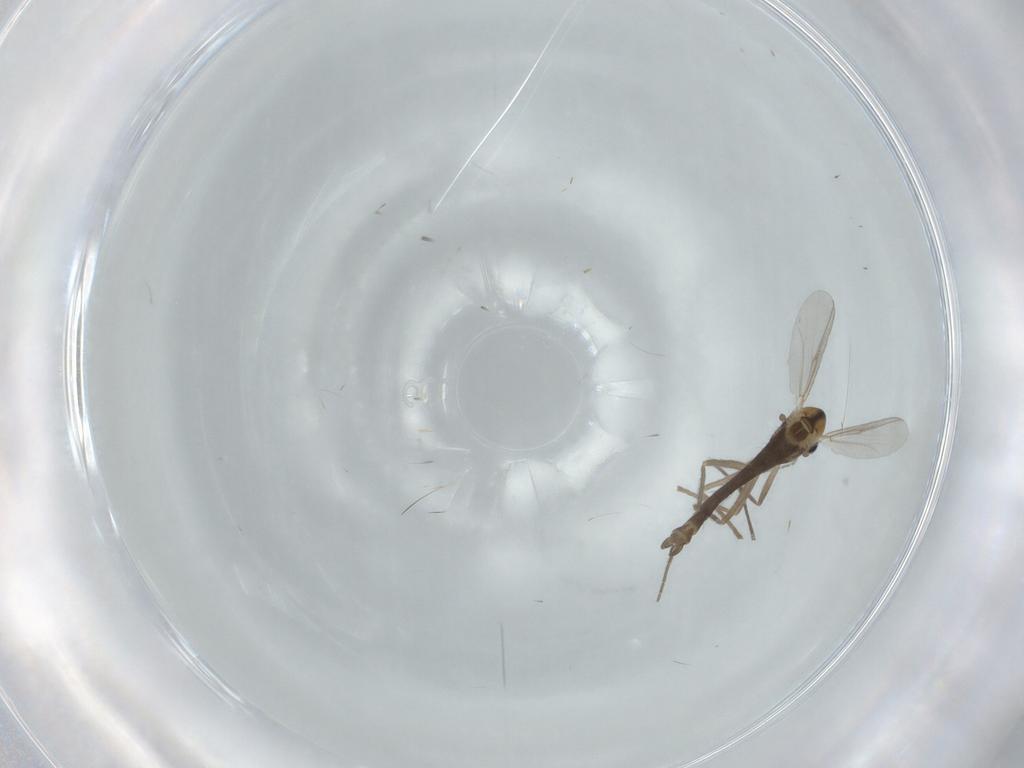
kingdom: Animalia
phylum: Arthropoda
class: Insecta
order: Diptera
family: Chironomidae
